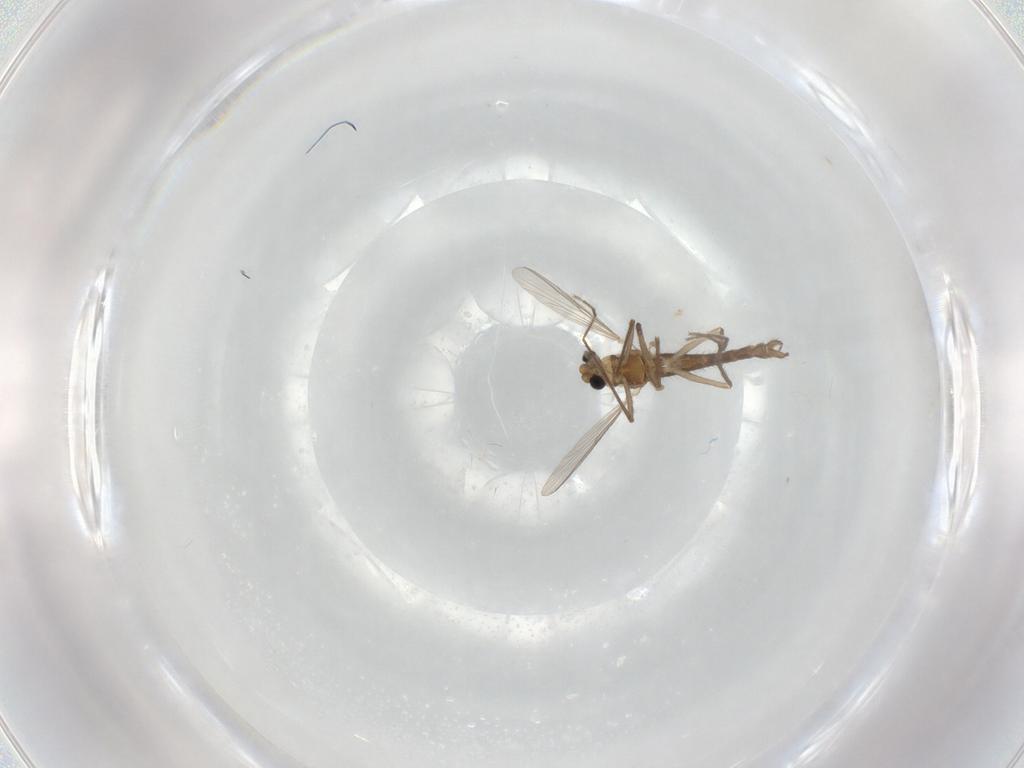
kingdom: Animalia
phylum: Arthropoda
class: Insecta
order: Diptera
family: Chironomidae
